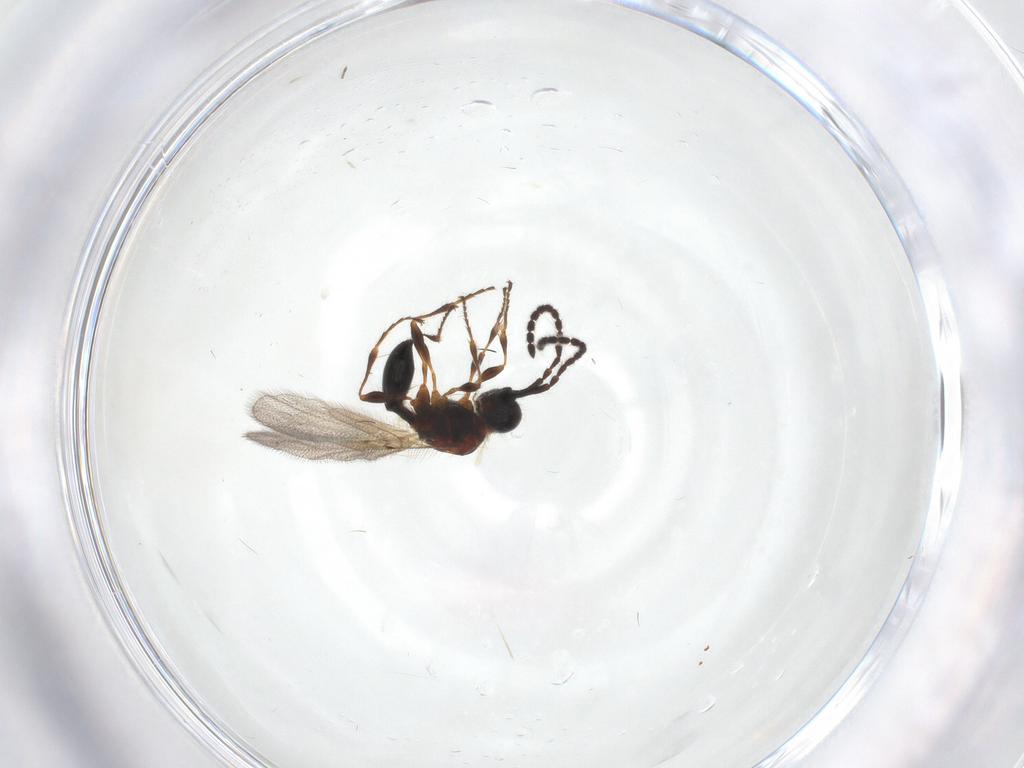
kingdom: Animalia
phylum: Arthropoda
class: Insecta
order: Hymenoptera
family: Diapriidae
